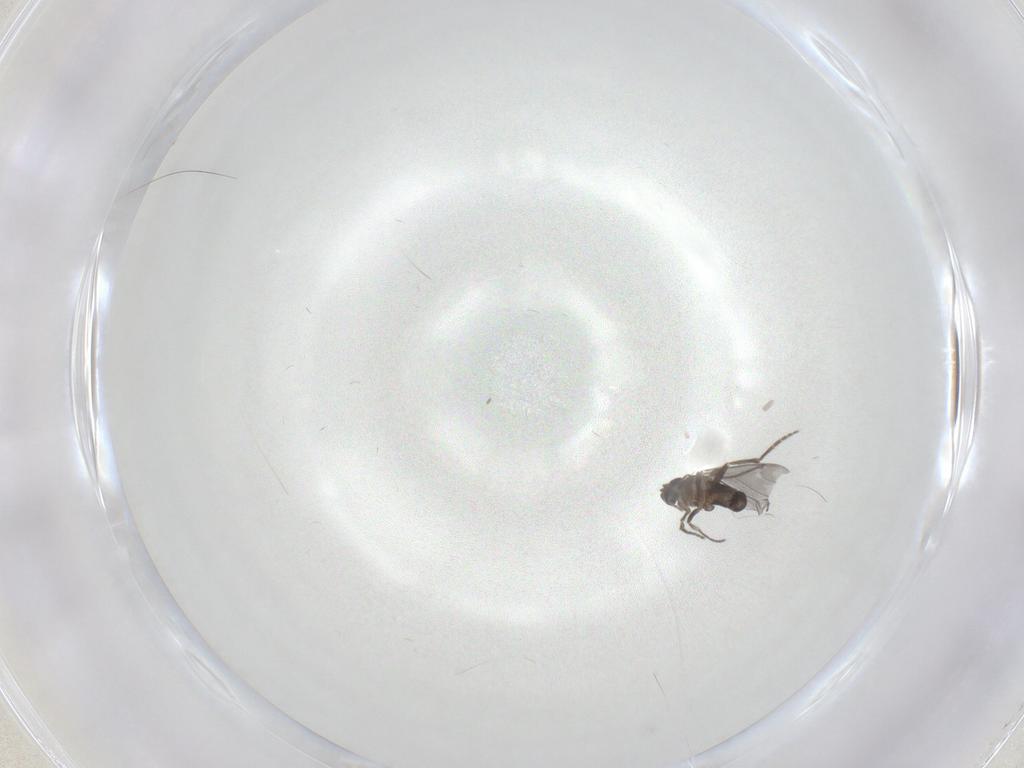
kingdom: Animalia
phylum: Arthropoda
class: Insecta
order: Diptera
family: Phoridae
